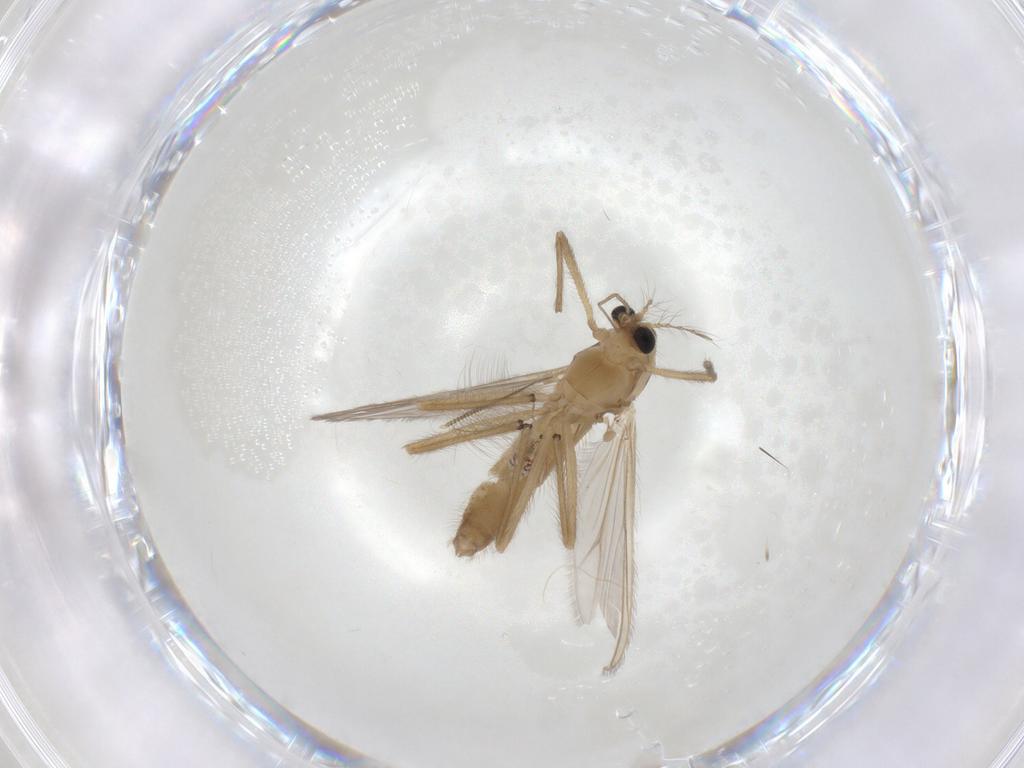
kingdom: Animalia
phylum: Arthropoda
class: Insecta
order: Diptera
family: Chironomidae
